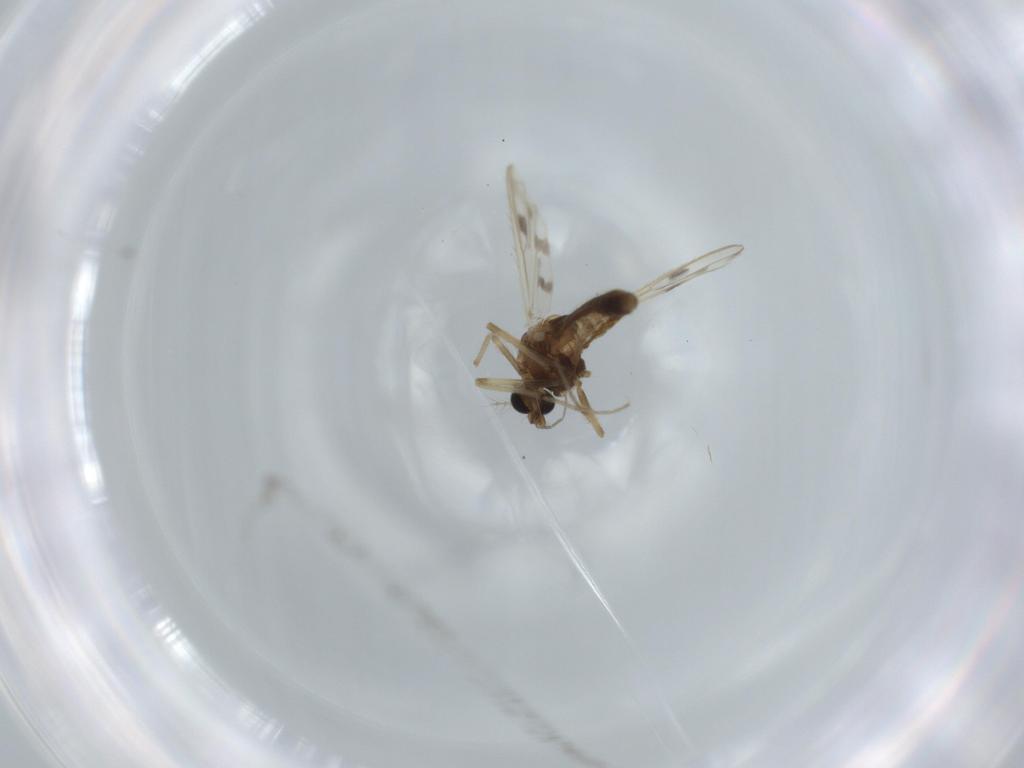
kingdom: Animalia
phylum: Arthropoda
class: Insecta
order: Diptera
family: Chironomidae
